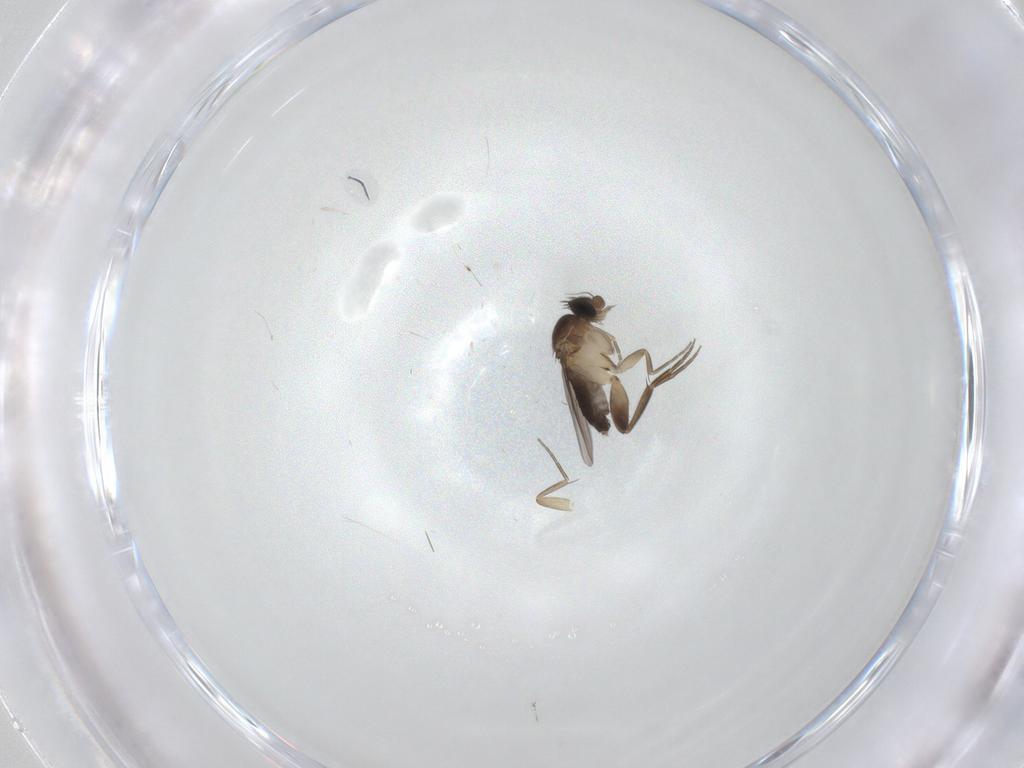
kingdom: Animalia
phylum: Arthropoda
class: Insecta
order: Diptera
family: Phoridae
